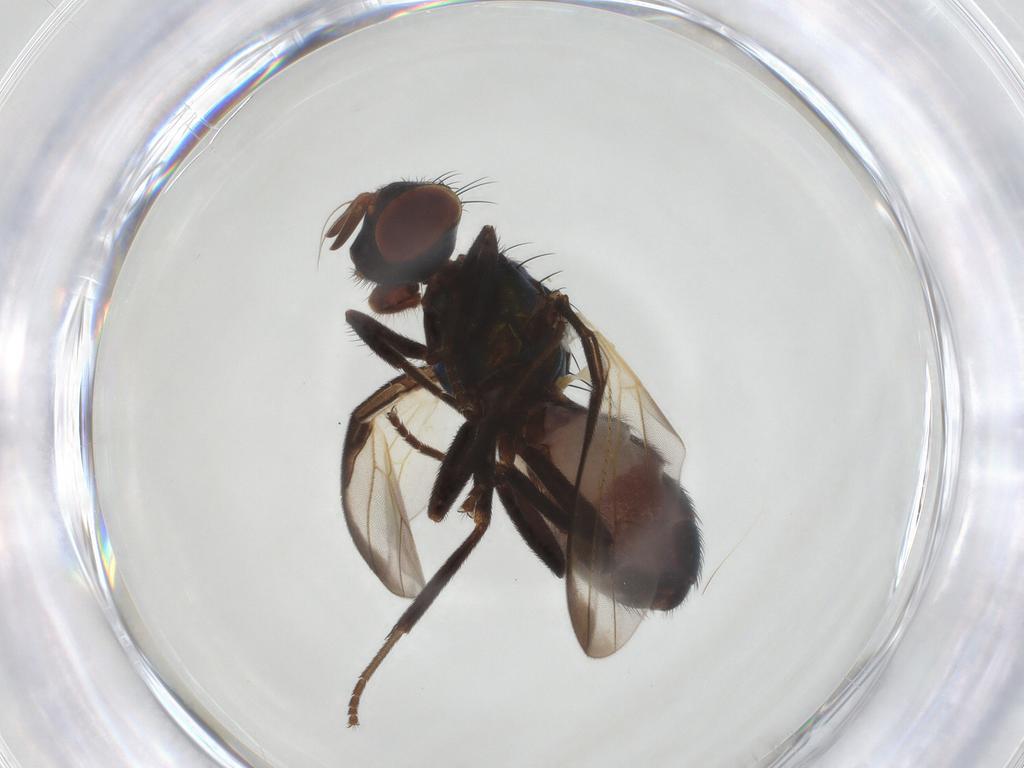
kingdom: Animalia
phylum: Arthropoda
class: Insecta
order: Diptera
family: Platystomatidae
